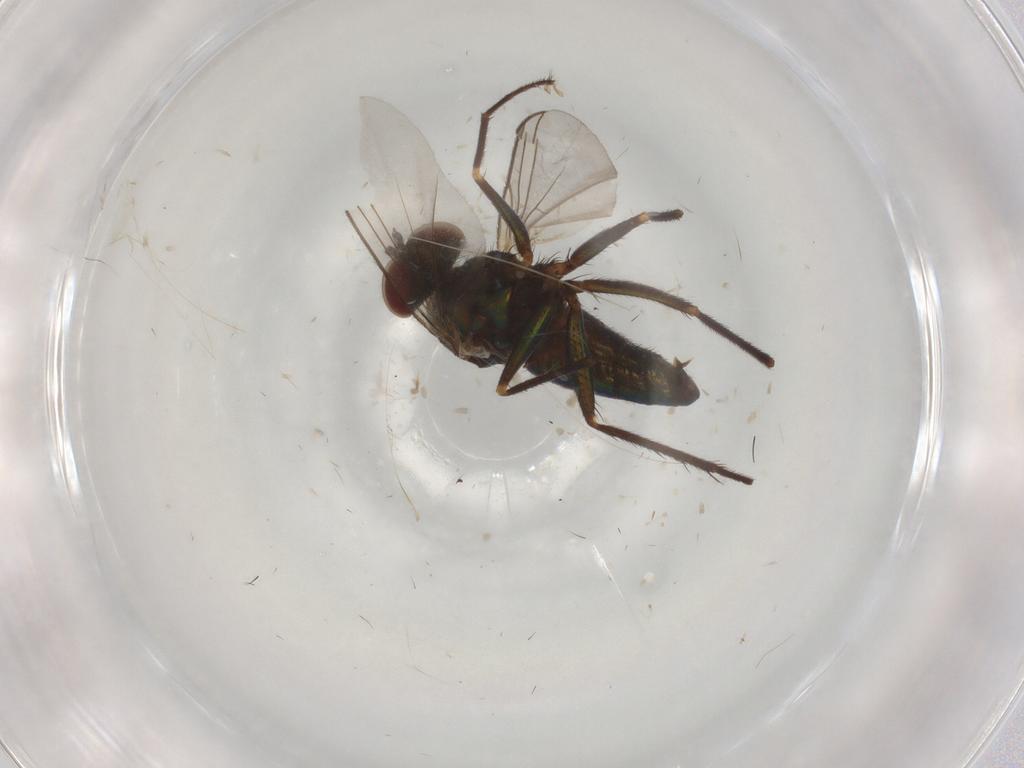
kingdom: Animalia
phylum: Arthropoda
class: Insecta
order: Diptera
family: Dolichopodidae
